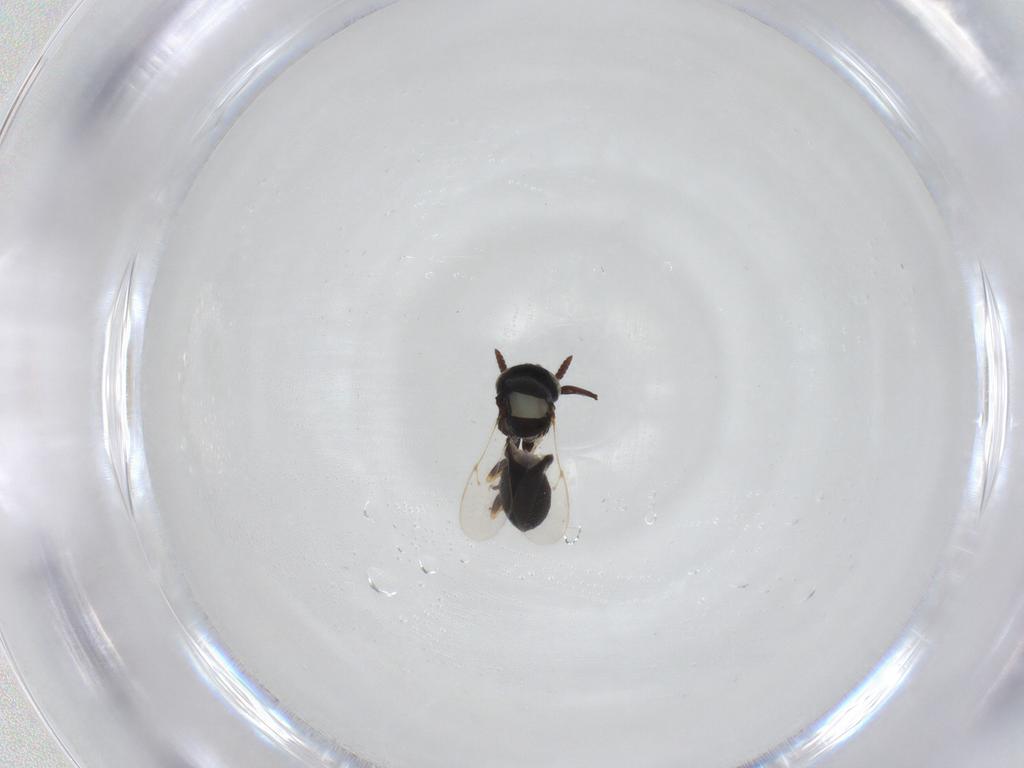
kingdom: Animalia
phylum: Arthropoda
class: Insecta
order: Hymenoptera
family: Scelionidae
